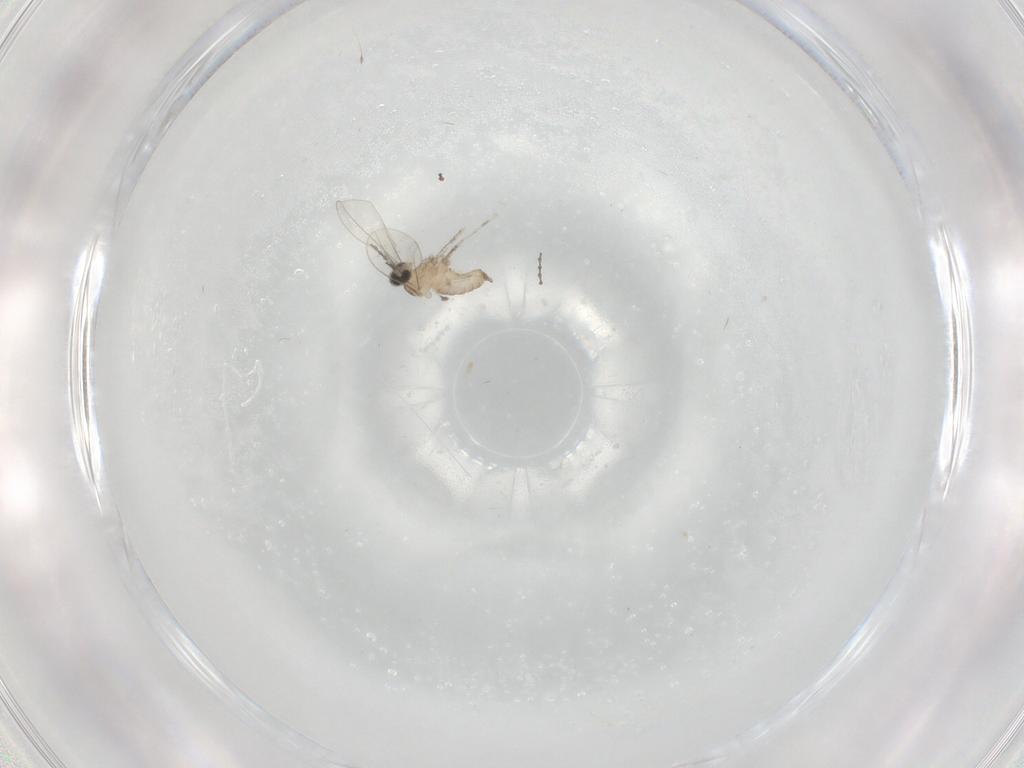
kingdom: Animalia
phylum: Arthropoda
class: Insecta
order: Diptera
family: Cecidomyiidae
